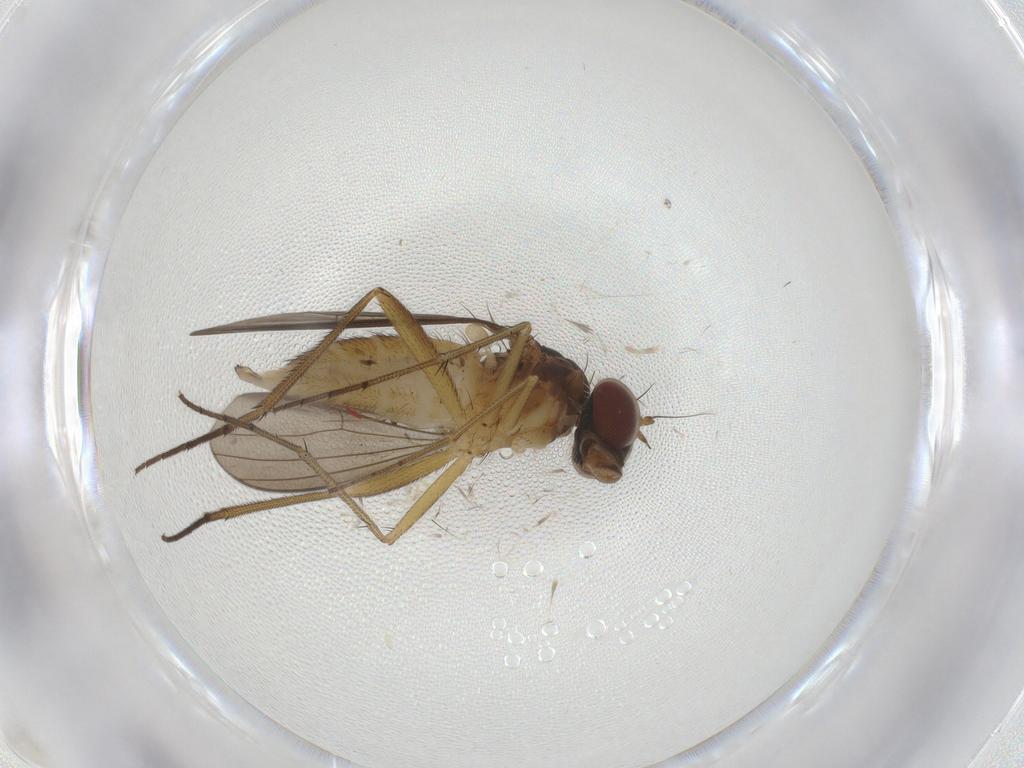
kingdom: Animalia
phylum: Arthropoda
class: Insecta
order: Diptera
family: Dolichopodidae
